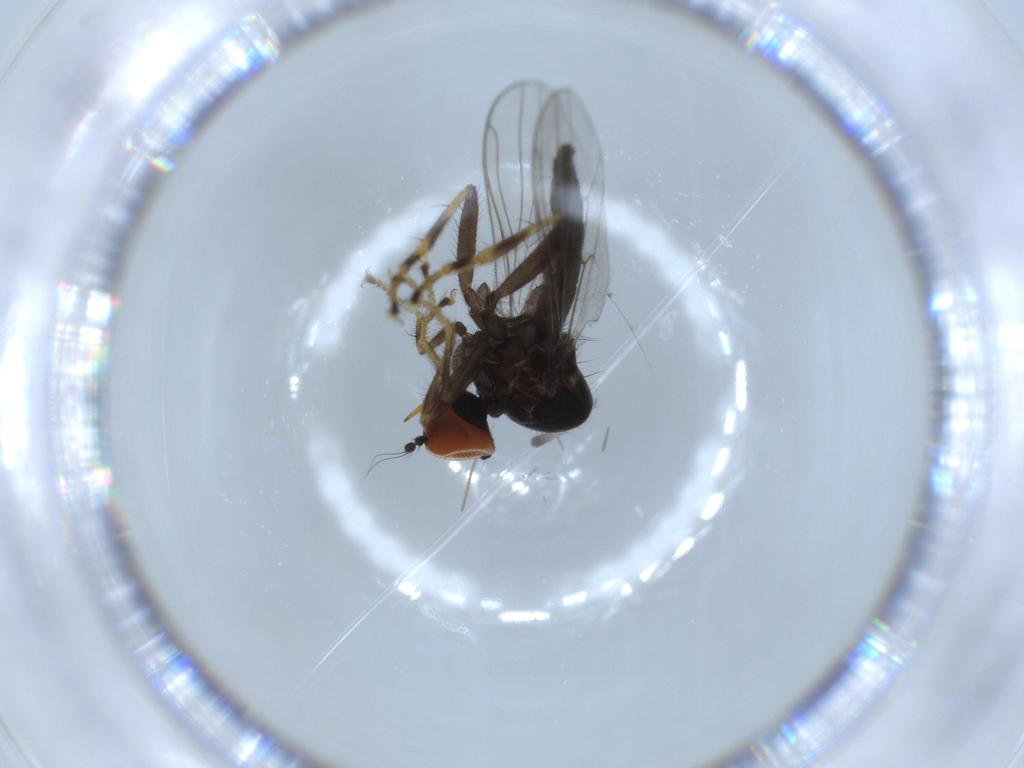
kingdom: Animalia
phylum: Arthropoda
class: Insecta
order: Diptera
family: Hybotidae
